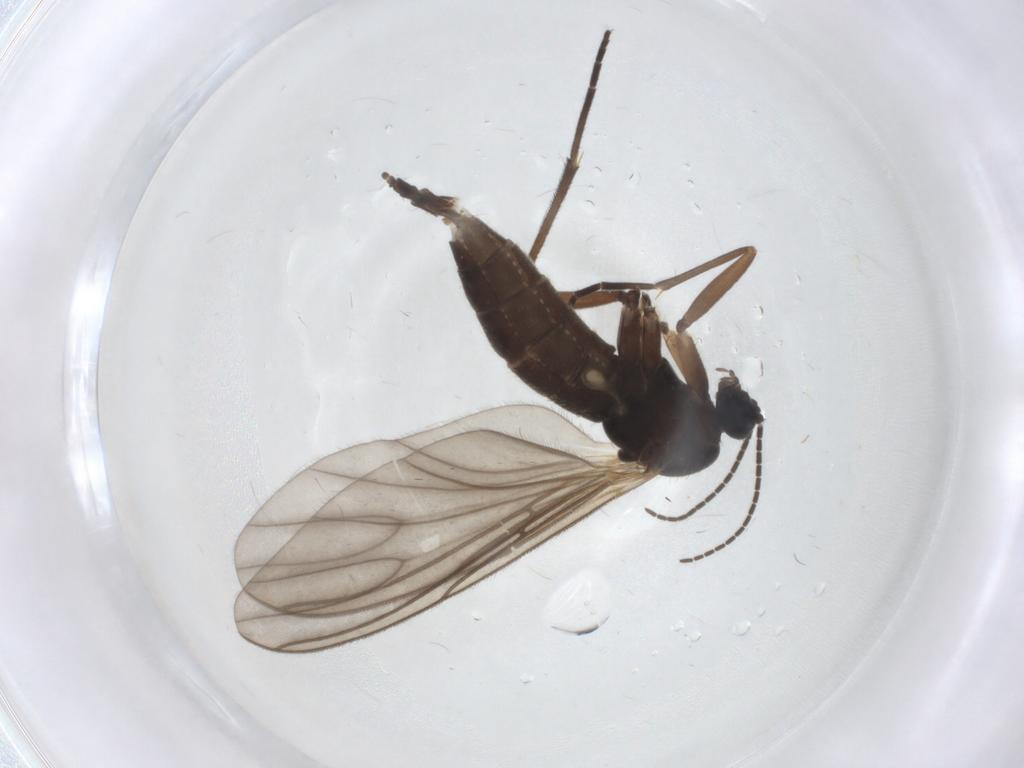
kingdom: Animalia
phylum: Arthropoda
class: Insecta
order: Diptera
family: Sciaridae
